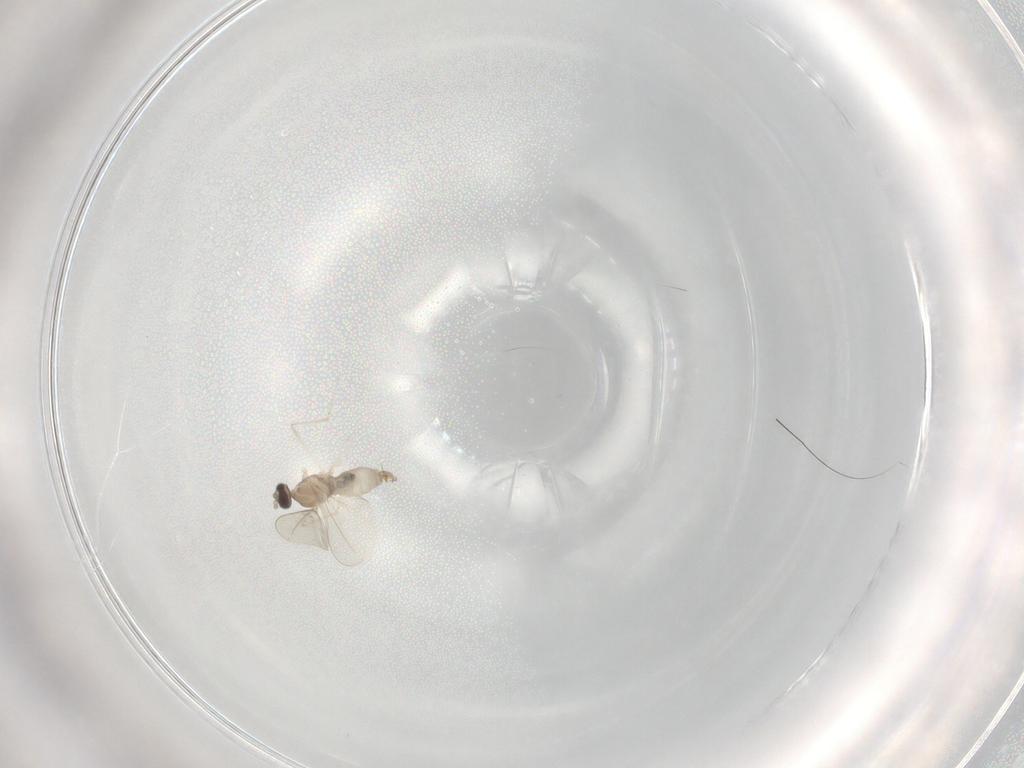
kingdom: Animalia
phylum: Arthropoda
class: Insecta
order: Diptera
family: Cecidomyiidae
